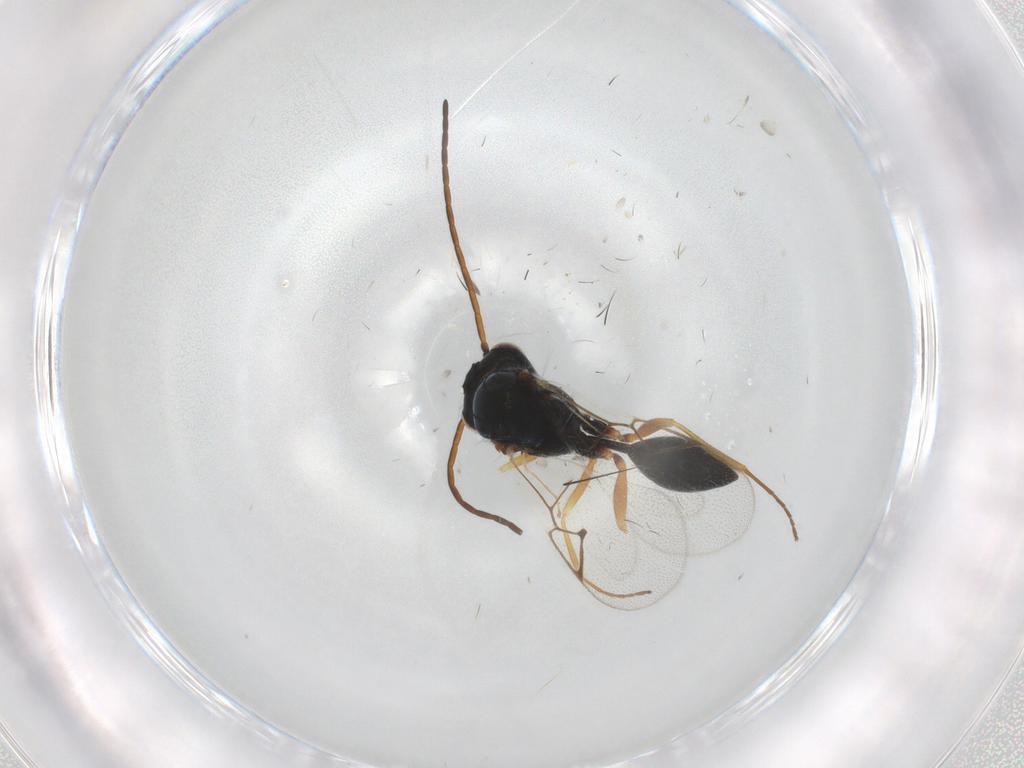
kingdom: Animalia
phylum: Arthropoda
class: Insecta
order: Hymenoptera
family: Figitidae
